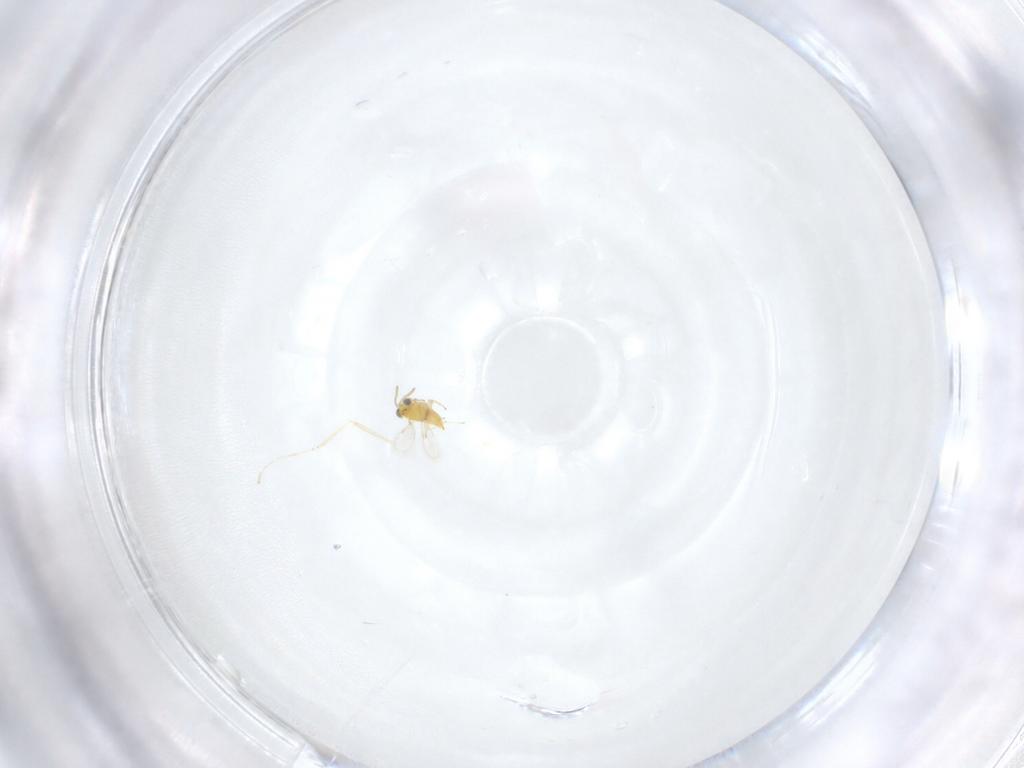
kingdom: Animalia
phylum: Arthropoda
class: Insecta
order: Hymenoptera
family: Aphelinidae
